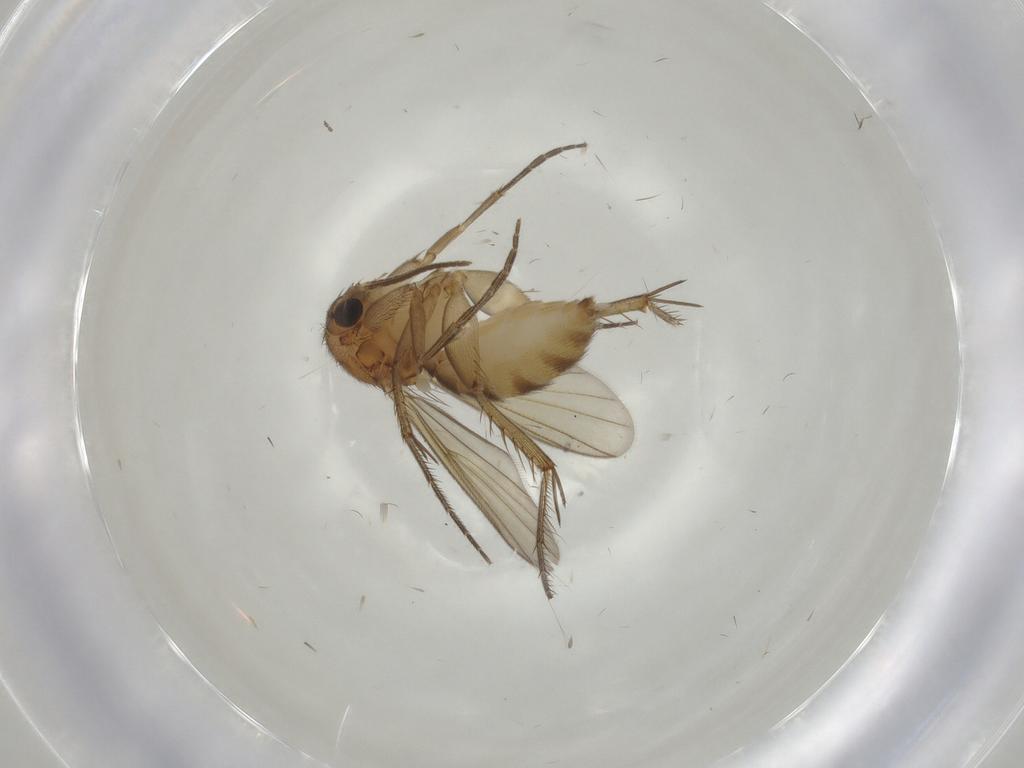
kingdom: Animalia
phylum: Arthropoda
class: Insecta
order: Diptera
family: Mycetophilidae
